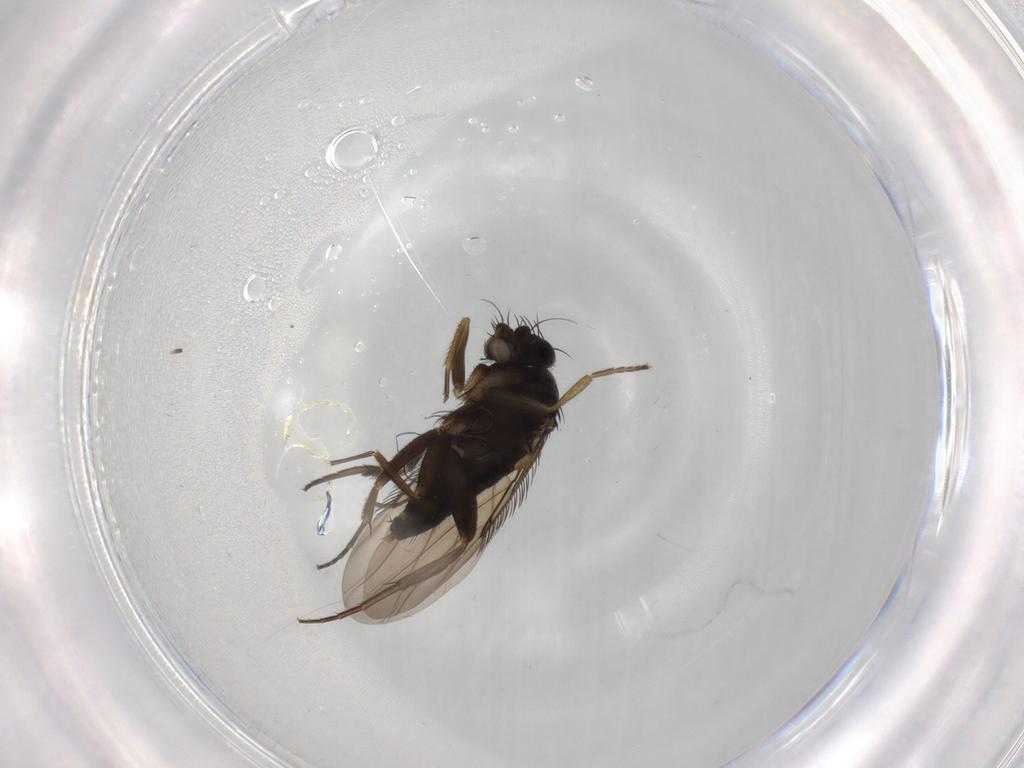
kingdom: Animalia
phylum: Arthropoda
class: Insecta
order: Diptera
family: Phoridae
